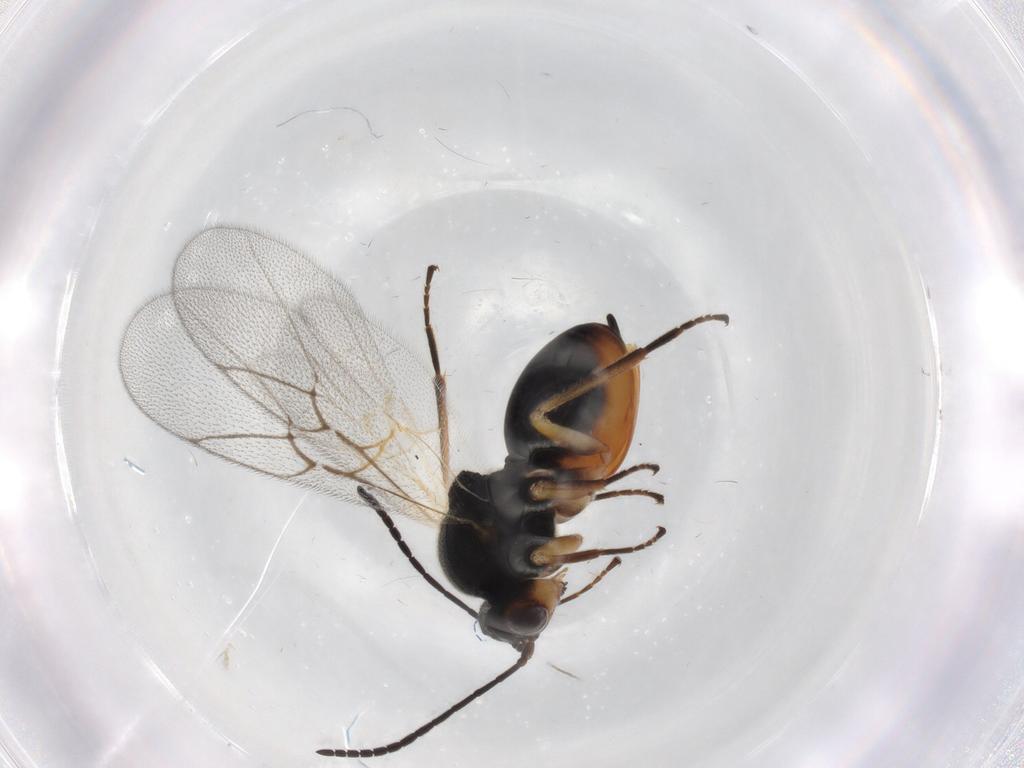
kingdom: Animalia
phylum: Arthropoda
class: Insecta
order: Hymenoptera
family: Cynipidae
